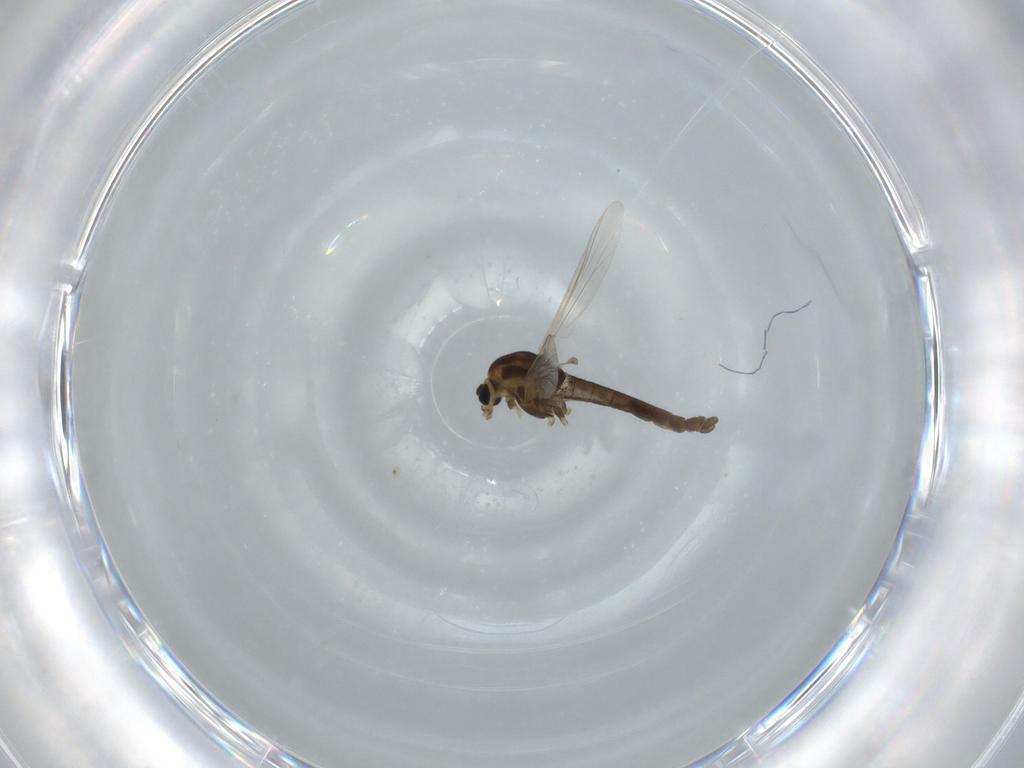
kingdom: Animalia
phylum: Arthropoda
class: Insecta
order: Diptera
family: Chironomidae
